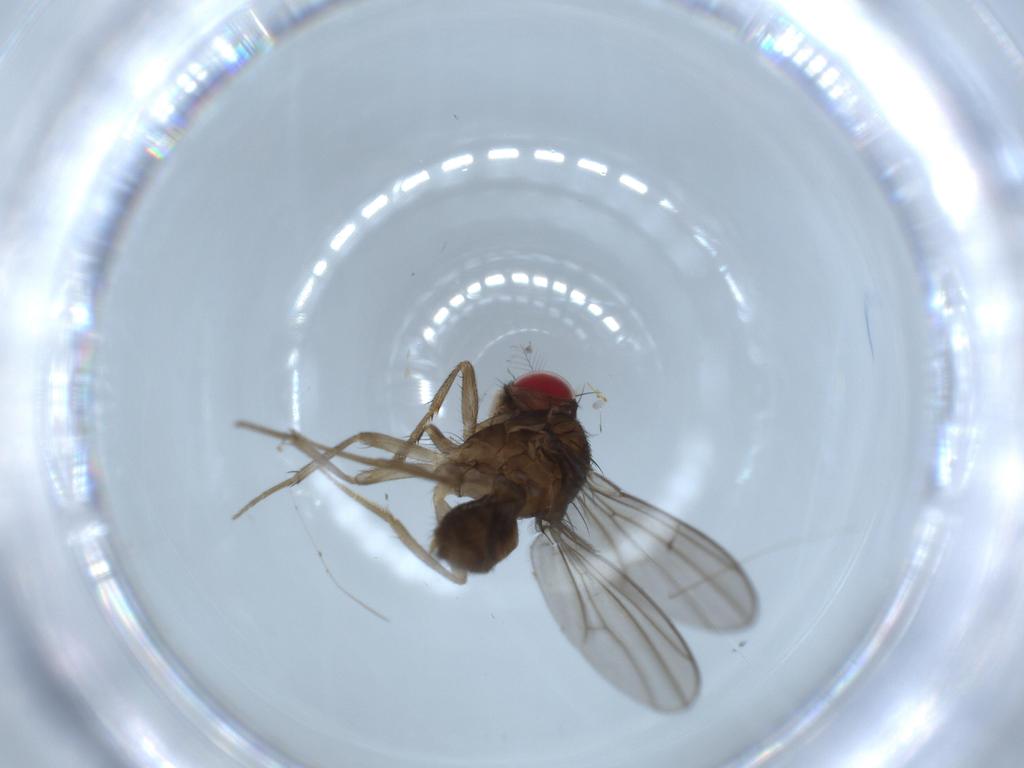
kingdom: Animalia
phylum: Arthropoda
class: Insecta
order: Diptera
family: Drosophilidae
